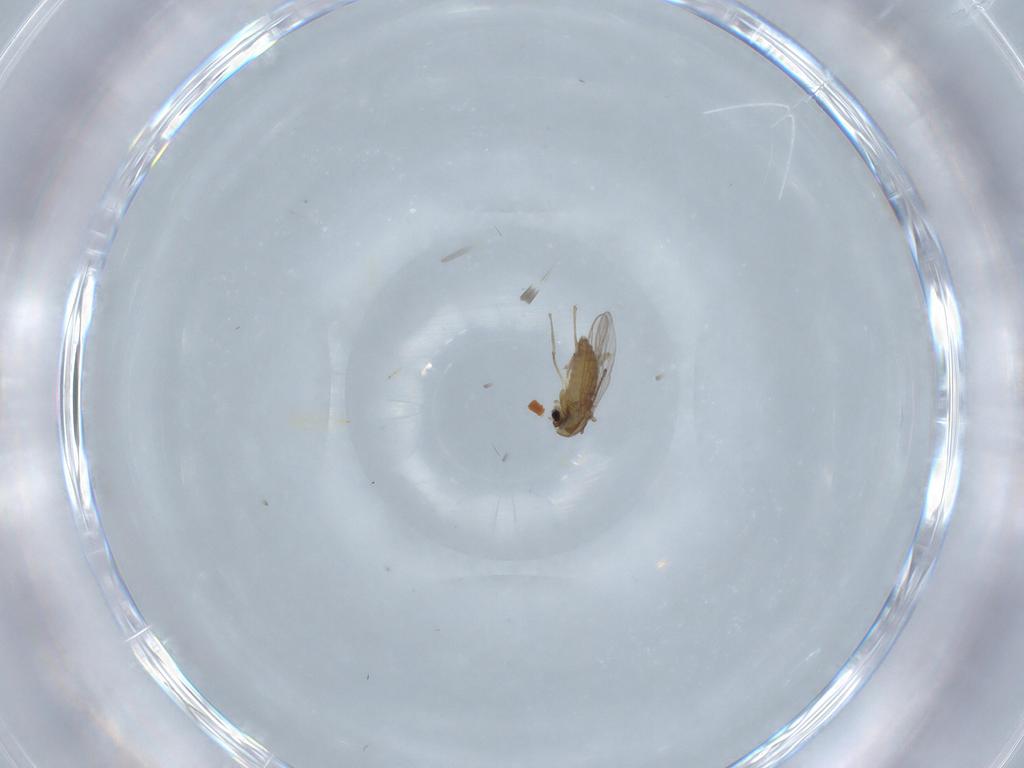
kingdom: Animalia
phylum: Arthropoda
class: Insecta
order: Diptera
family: Chironomidae
